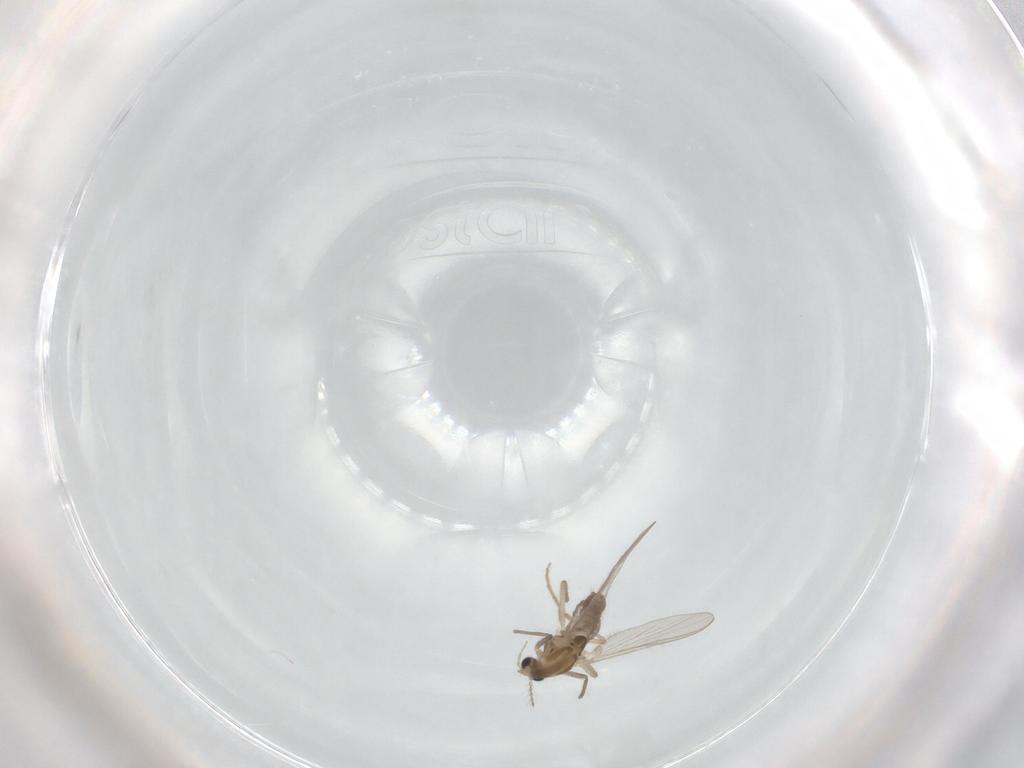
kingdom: Animalia
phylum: Arthropoda
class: Insecta
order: Diptera
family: Chironomidae
